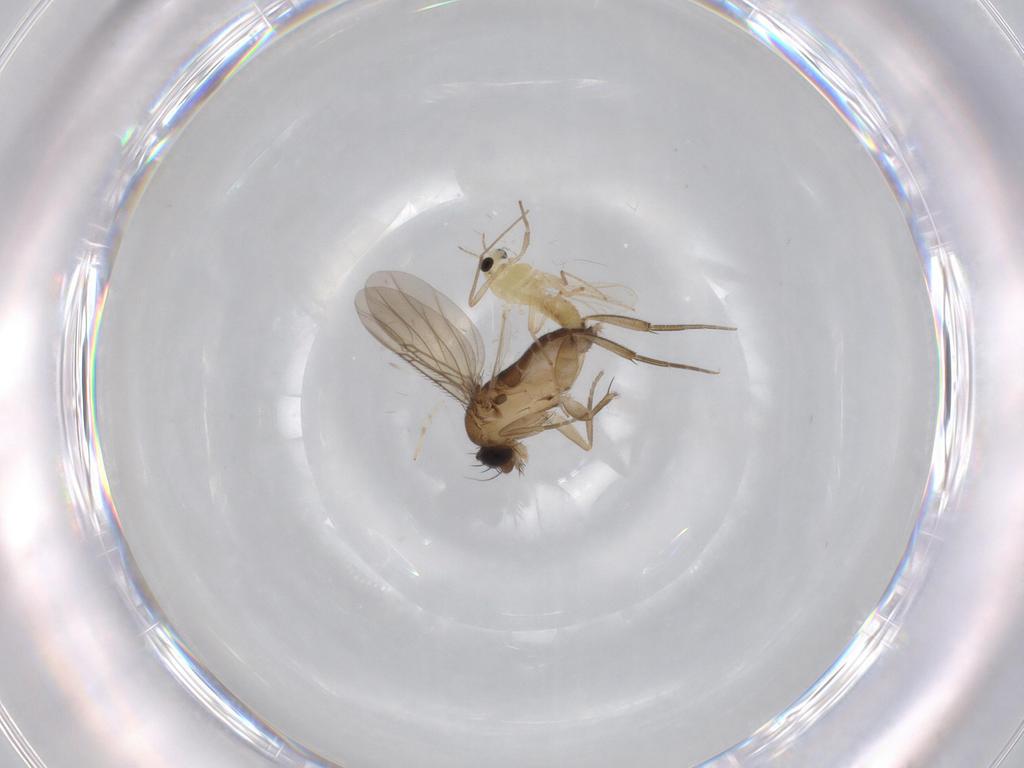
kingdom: Animalia
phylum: Arthropoda
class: Insecta
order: Diptera
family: Phoridae
